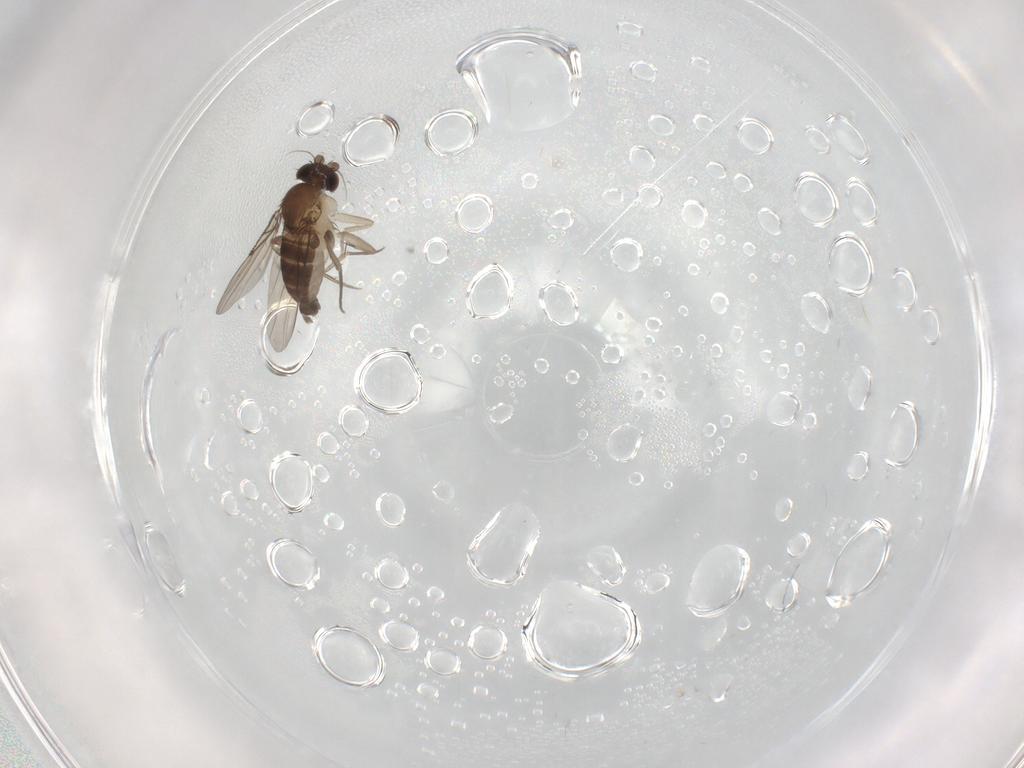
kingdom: Animalia
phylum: Arthropoda
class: Insecta
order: Diptera
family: Phoridae
